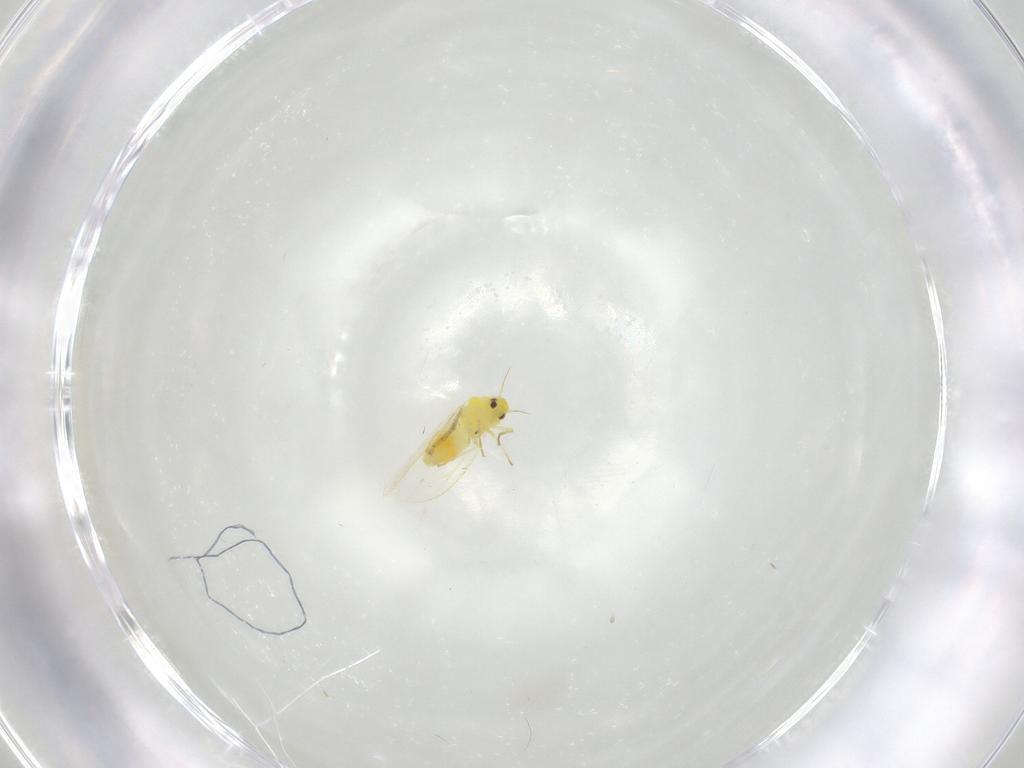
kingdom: Animalia
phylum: Arthropoda
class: Insecta
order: Hemiptera
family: Aleyrodidae
